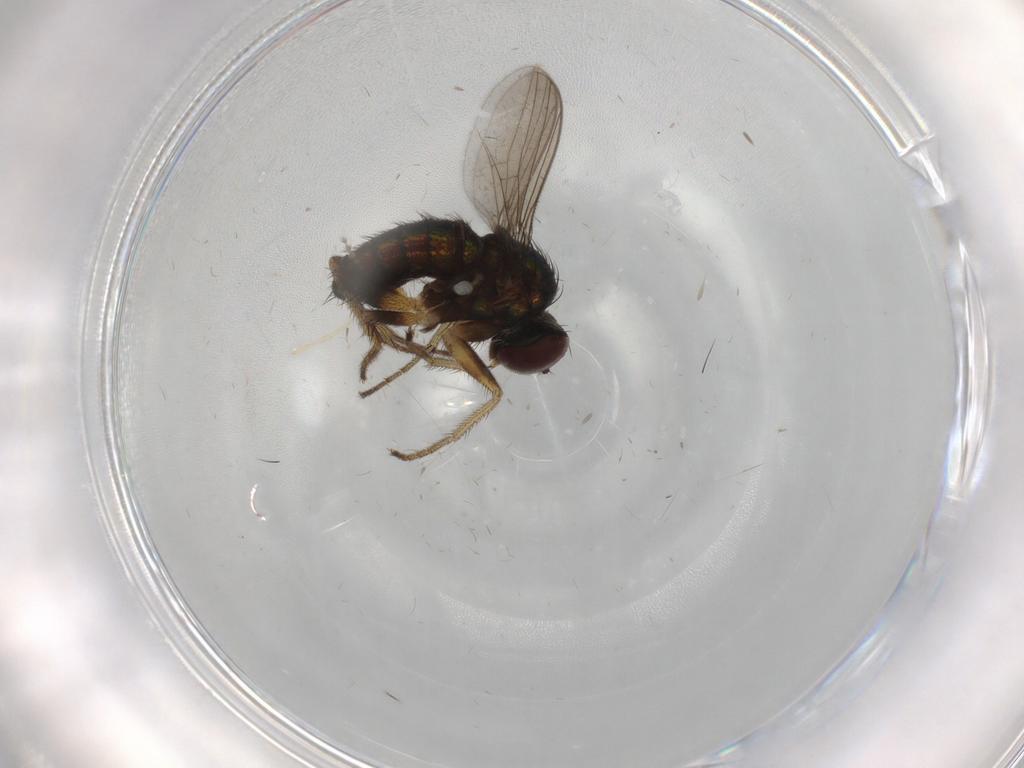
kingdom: Animalia
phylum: Arthropoda
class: Insecta
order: Diptera
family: Dolichopodidae
